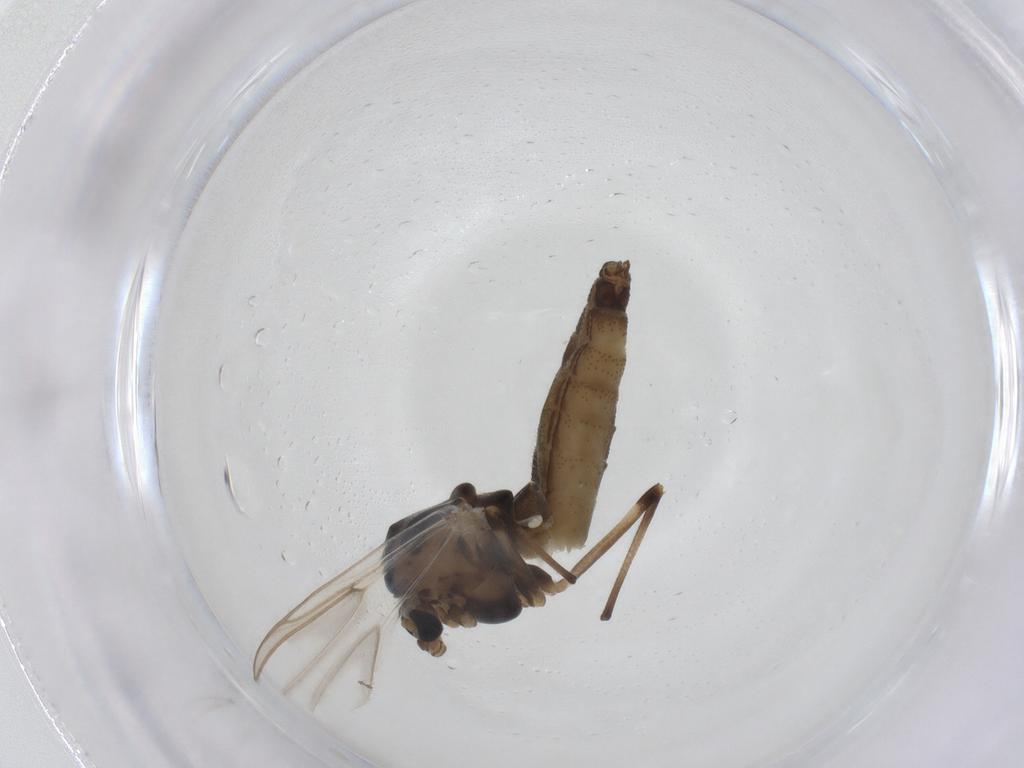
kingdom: Animalia
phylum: Arthropoda
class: Insecta
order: Diptera
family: Chironomidae
